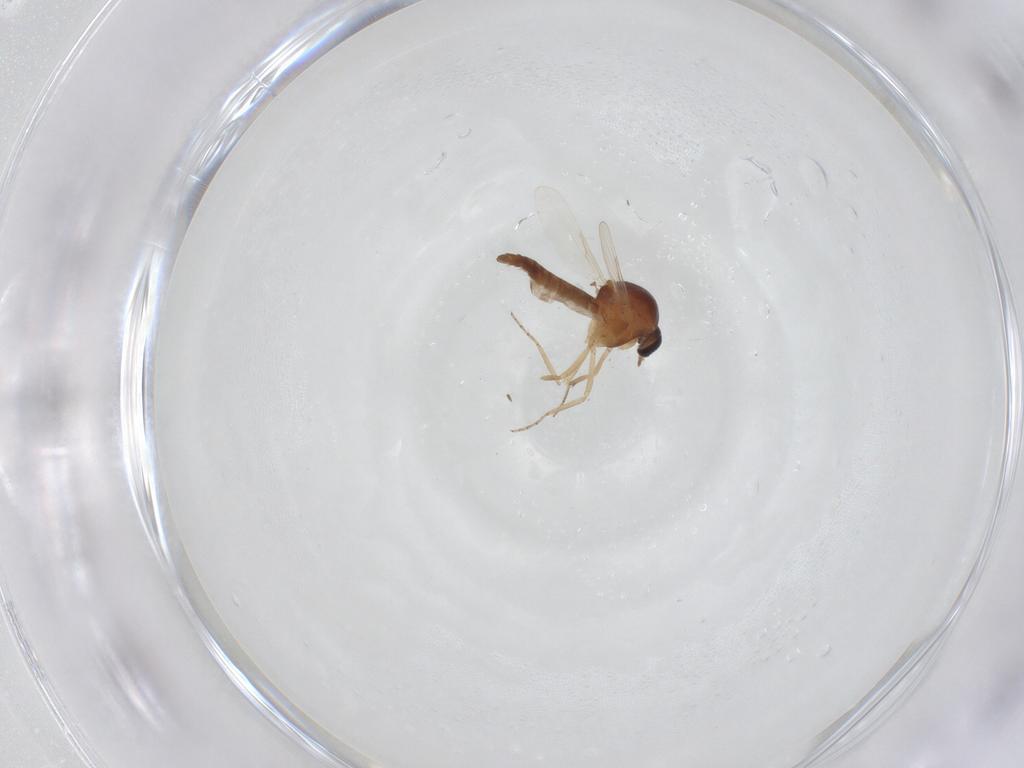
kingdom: Animalia
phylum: Arthropoda
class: Insecta
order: Diptera
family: Ceratopogonidae
